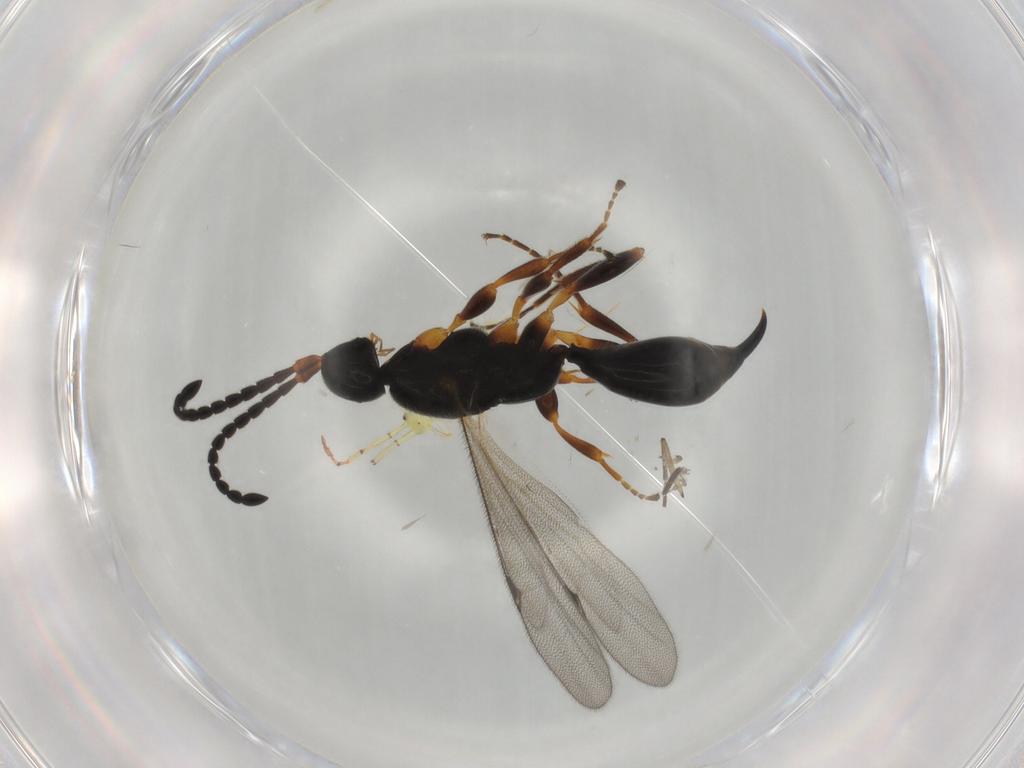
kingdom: Animalia
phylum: Arthropoda
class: Insecta
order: Hymenoptera
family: Proctotrupidae
